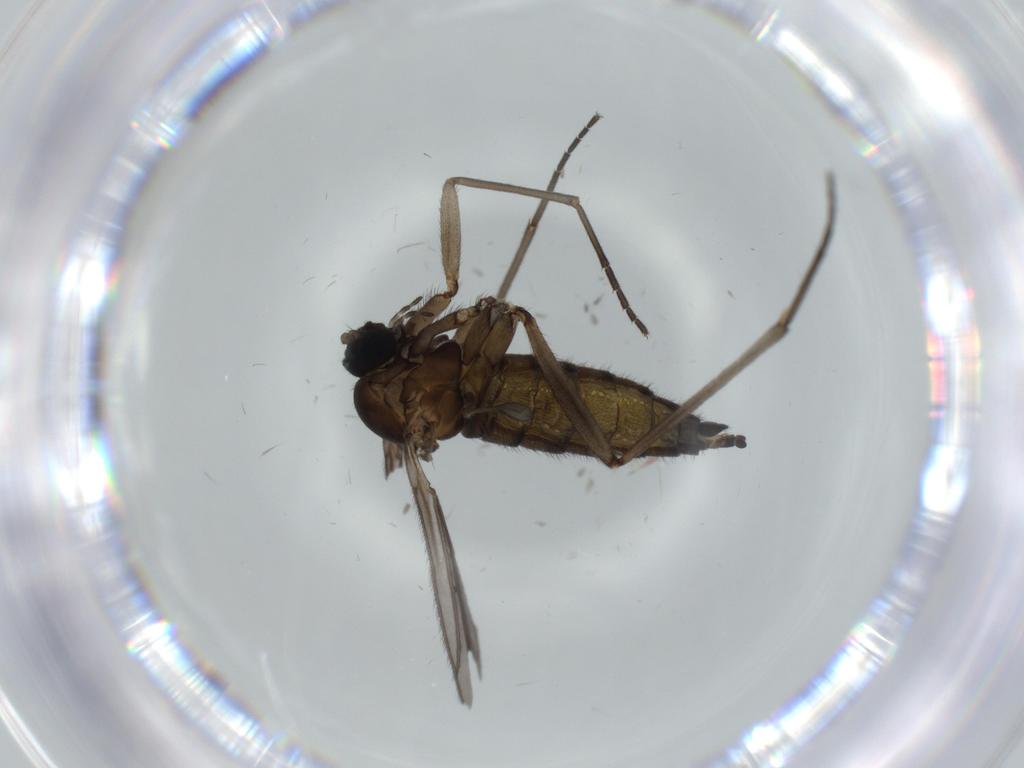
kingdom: Animalia
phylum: Arthropoda
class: Insecta
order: Diptera
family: Sciaridae
